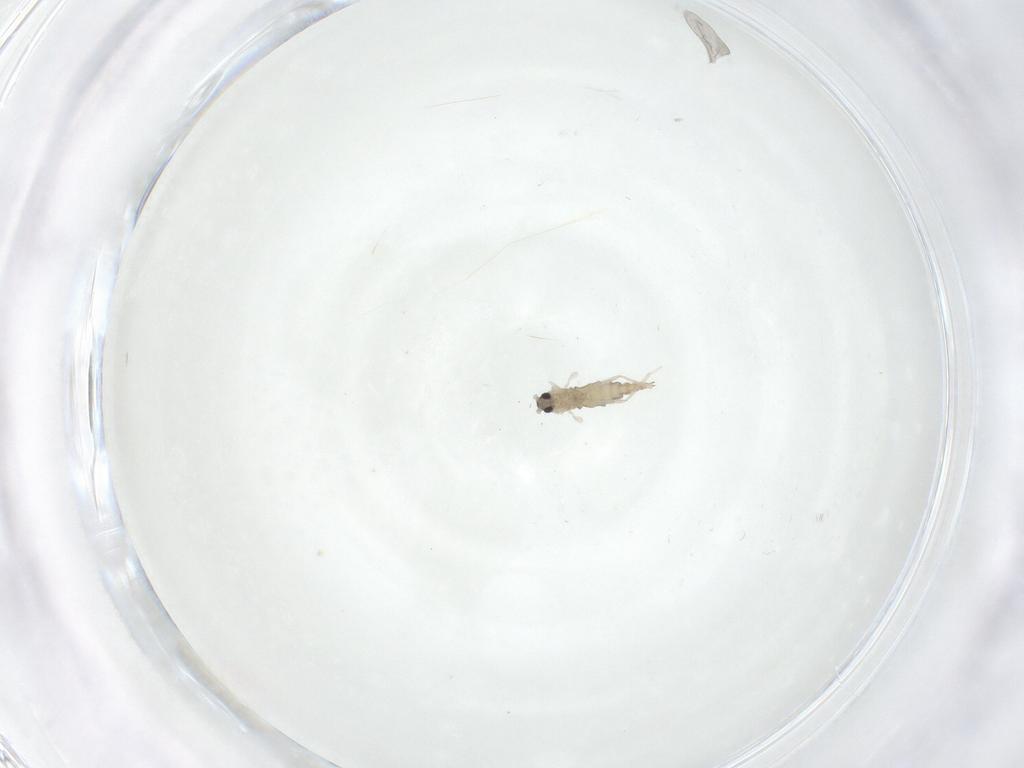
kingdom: Animalia
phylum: Arthropoda
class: Insecta
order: Diptera
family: Cecidomyiidae
